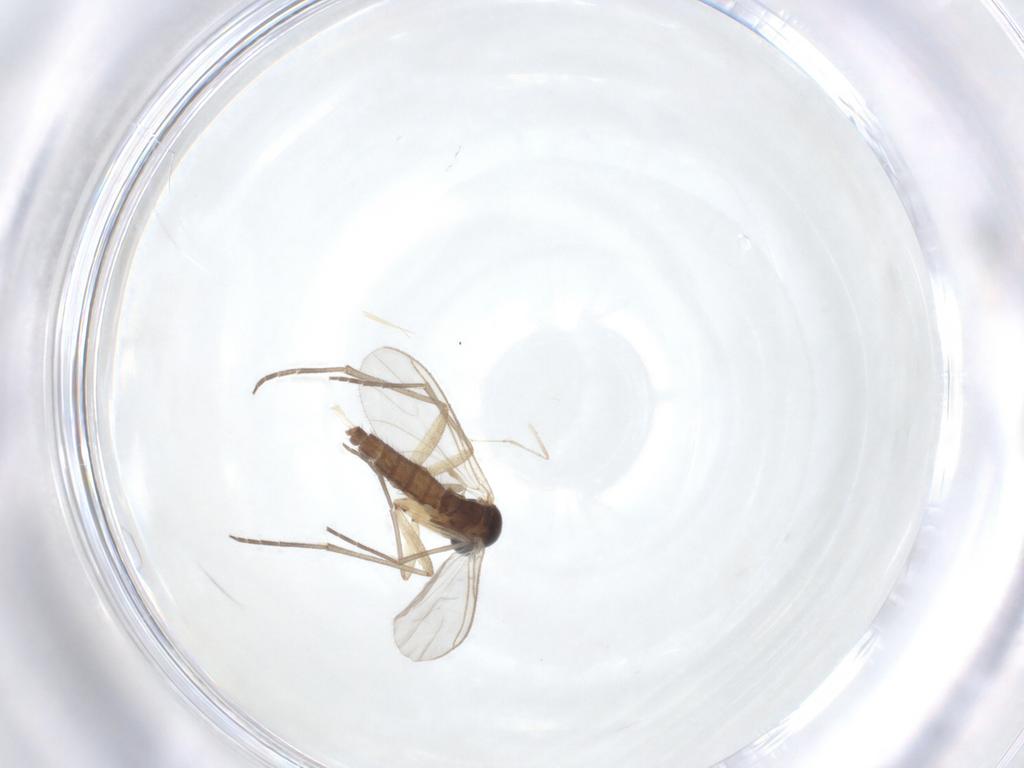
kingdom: Animalia
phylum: Arthropoda
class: Insecta
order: Diptera
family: Cecidomyiidae
